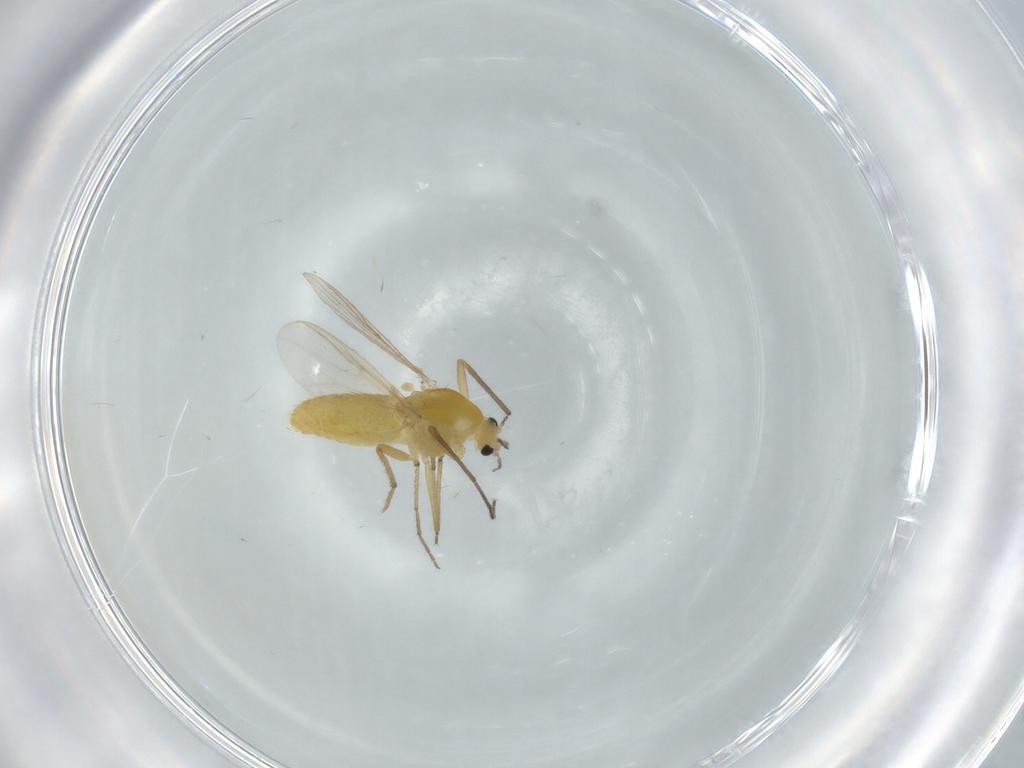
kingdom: Animalia
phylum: Arthropoda
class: Insecta
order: Diptera
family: Chironomidae
